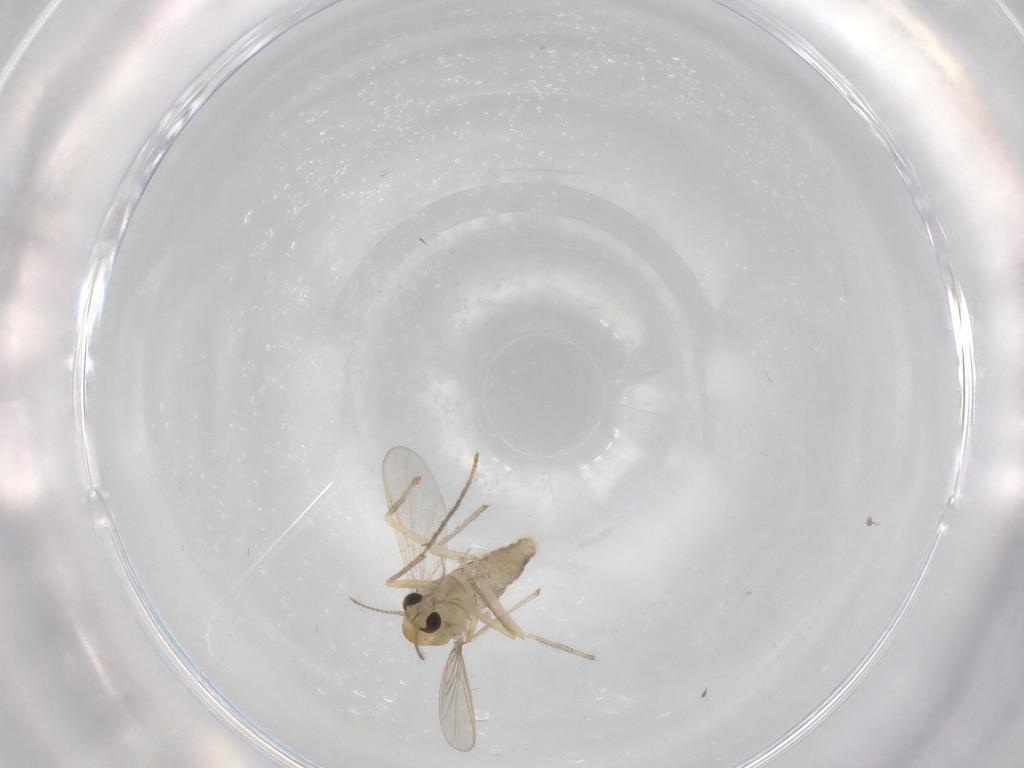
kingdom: Animalia
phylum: Arthropoda
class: Insecta
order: Diptera
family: Chironomidae
